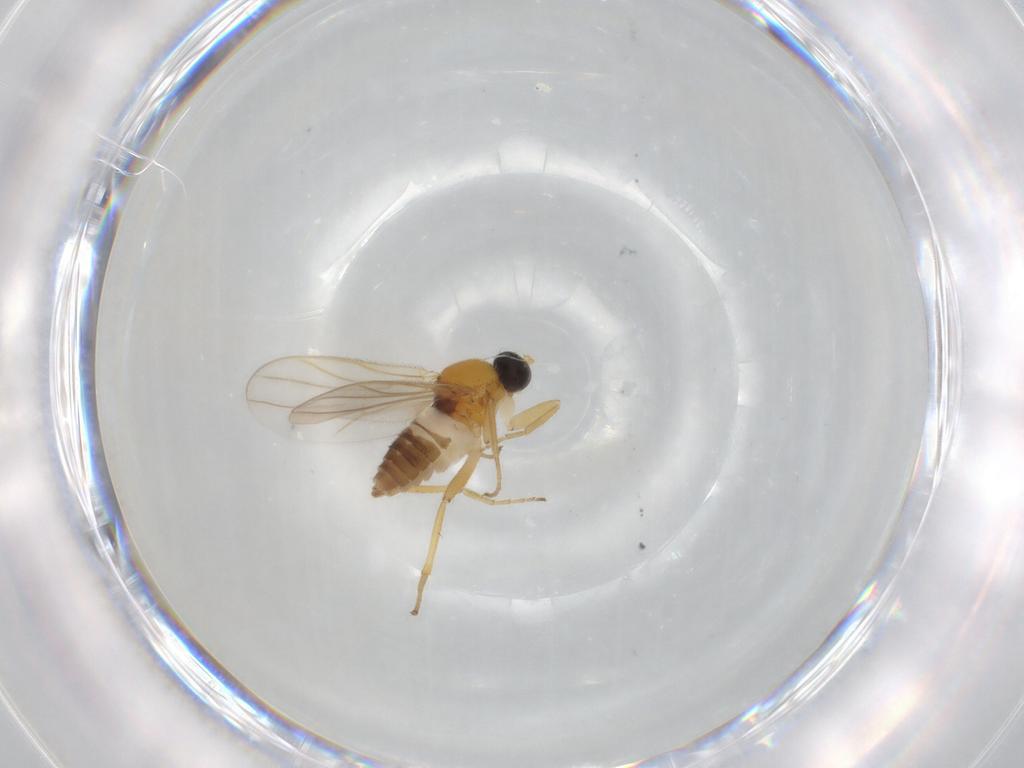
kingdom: Animalia
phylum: Arthropoda
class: Insecta
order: Diptera
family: Hybotidae
